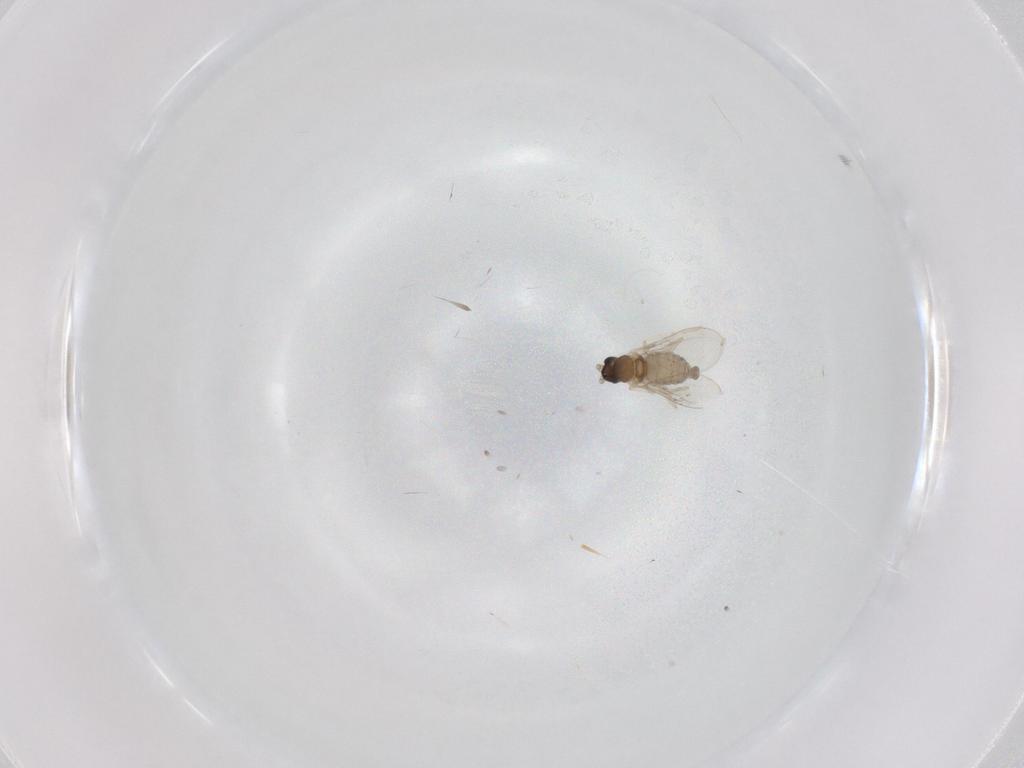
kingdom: Animalia
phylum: Arthropoda
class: Insecta
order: Diptera
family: Cecidomyiidae
